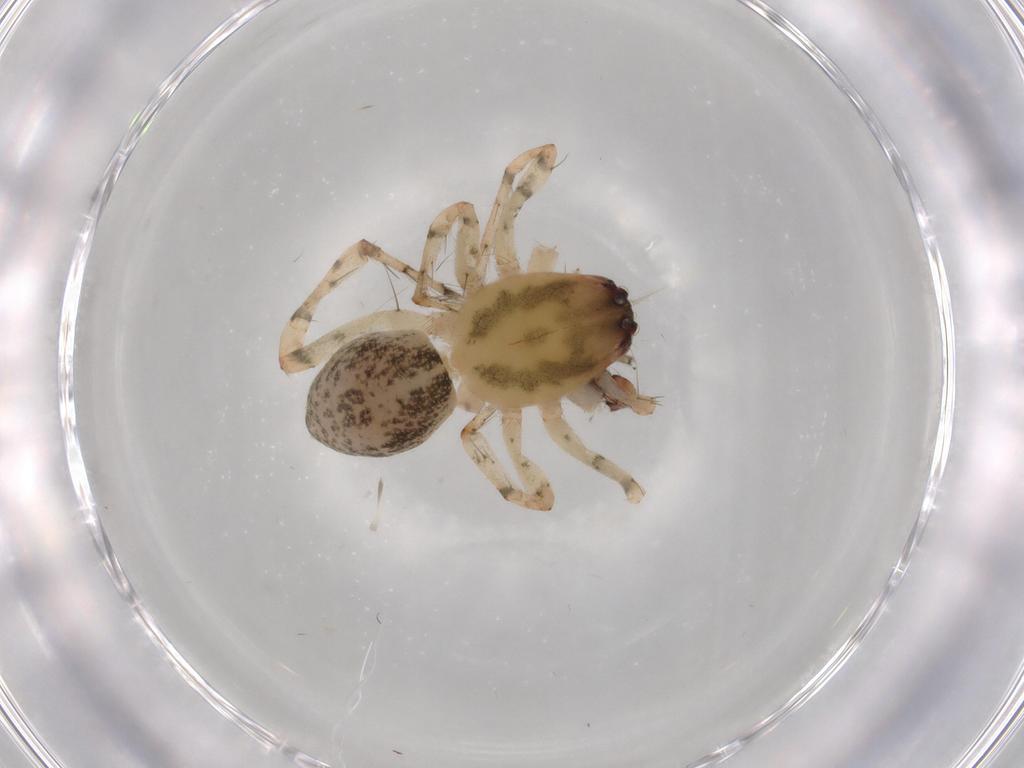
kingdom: Animalia
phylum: Arthropoda
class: Arachnida
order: Araneae
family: Anyphaenidae
